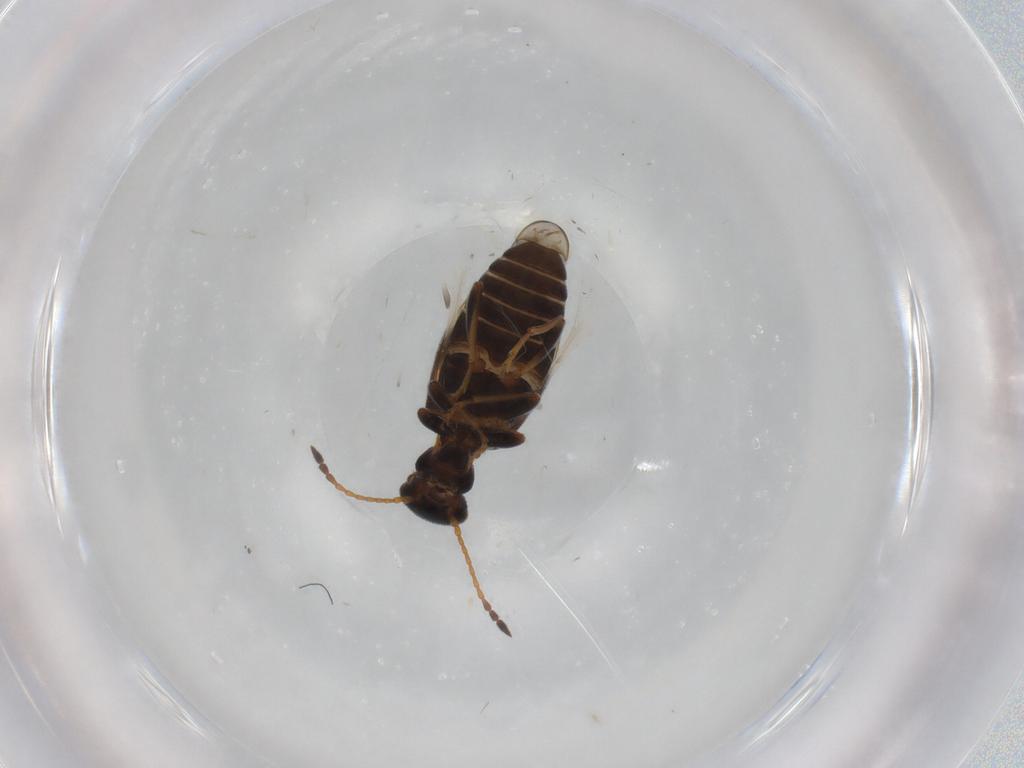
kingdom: Animalia
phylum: Arthropoda
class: Insecta
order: Coleoptera
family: Anthicidae
